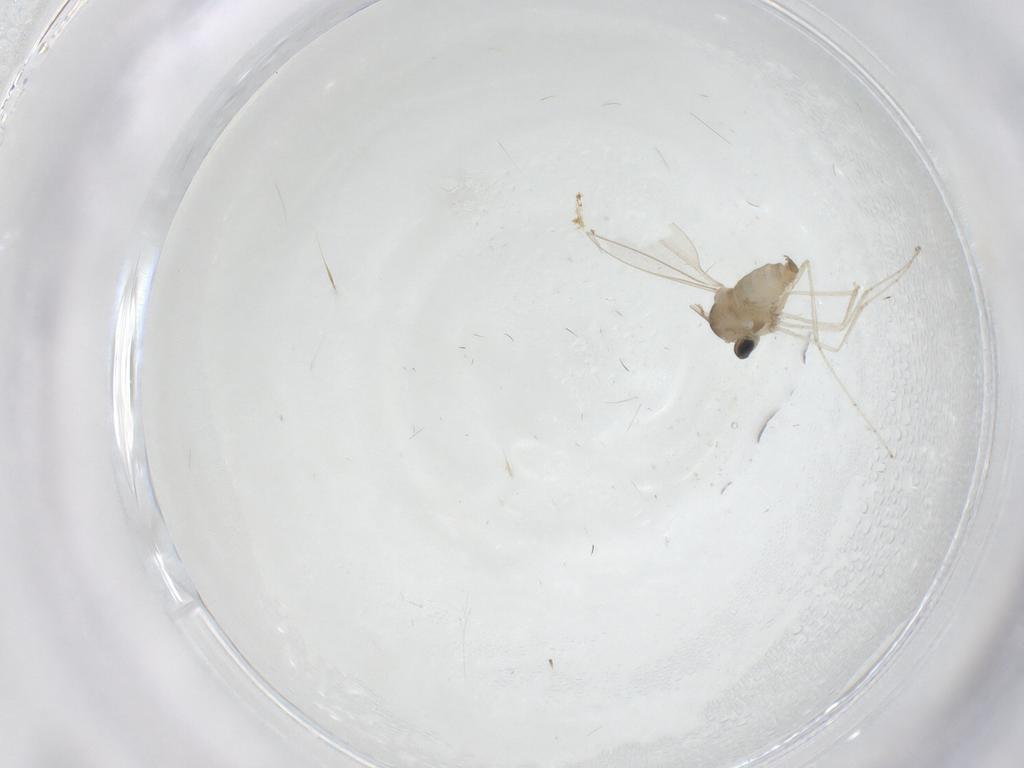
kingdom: Animalia
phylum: Arthropoda
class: Insecta
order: Diptera
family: Cecidomyiidae
